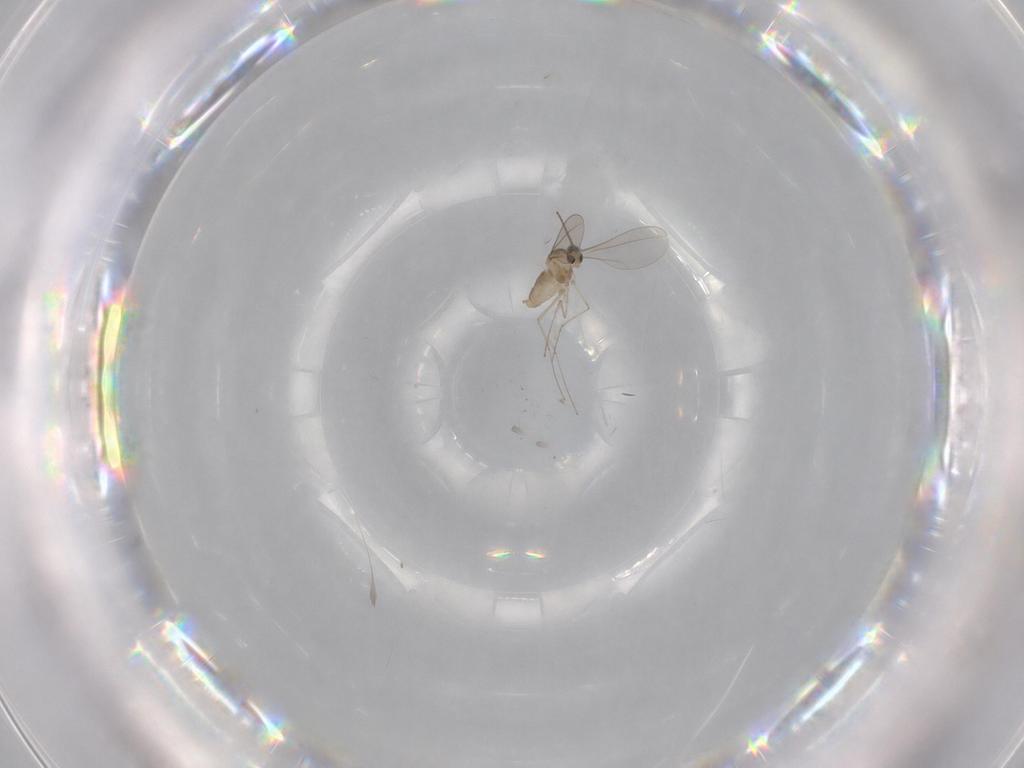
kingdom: Animalia
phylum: Arthropoda
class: Insecta
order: Diptera
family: Cecidomyiidae
